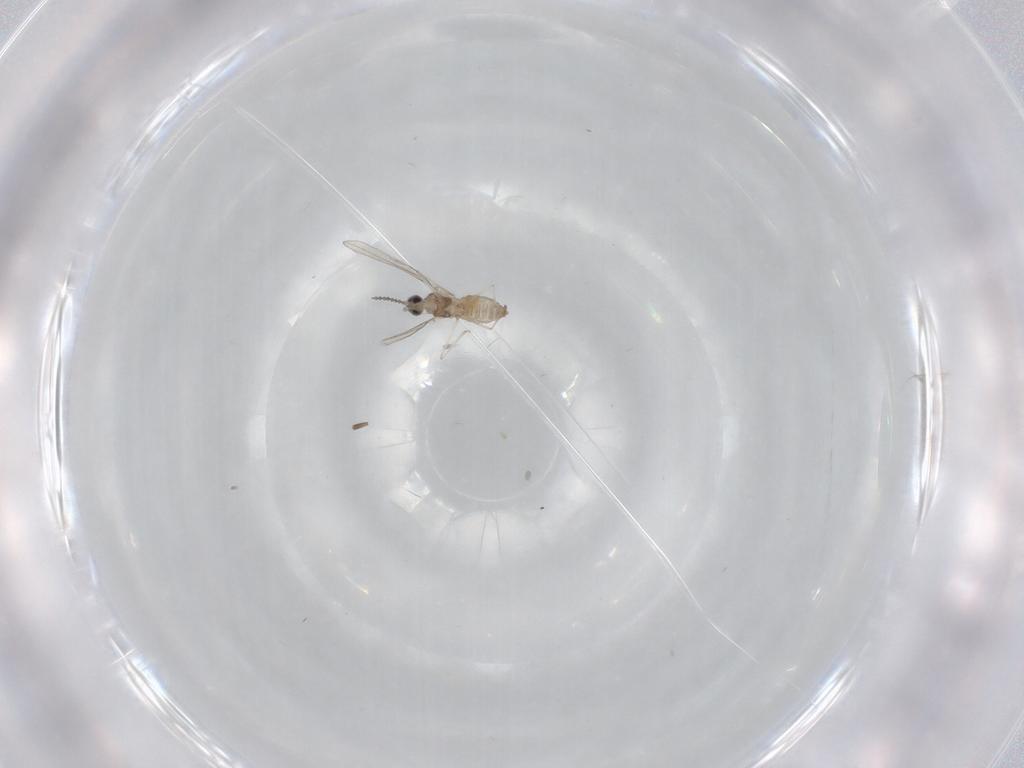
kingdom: Animalia
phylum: Arthropoda
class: Insecta
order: Diptera
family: Cecidomyiidae
